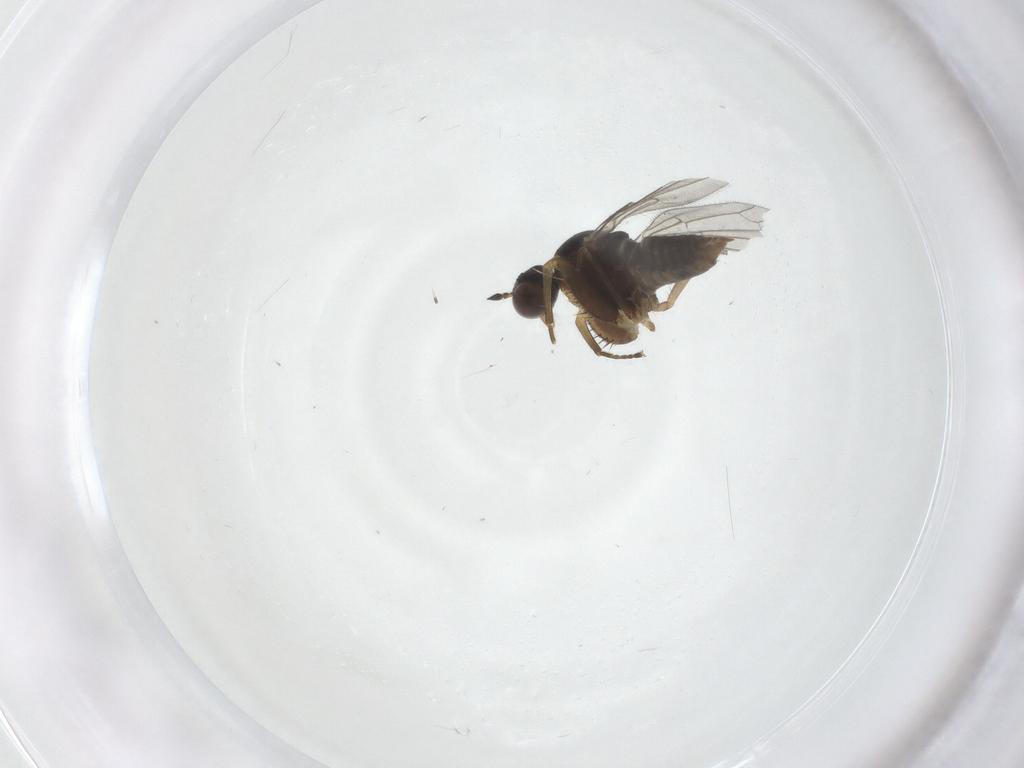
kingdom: Animalia
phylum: Arthropoda
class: Insecta
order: Diptera
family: Empididae
